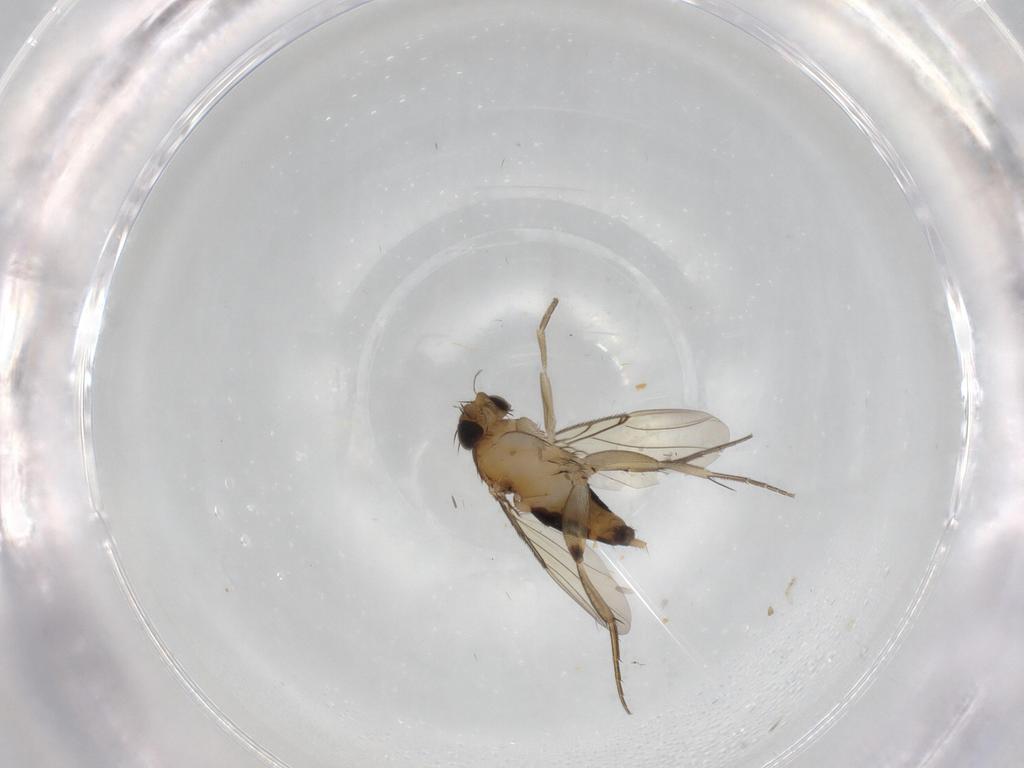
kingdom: Animalia
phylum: Arthropoda
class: Insecta
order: Diptera
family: Phoridae
